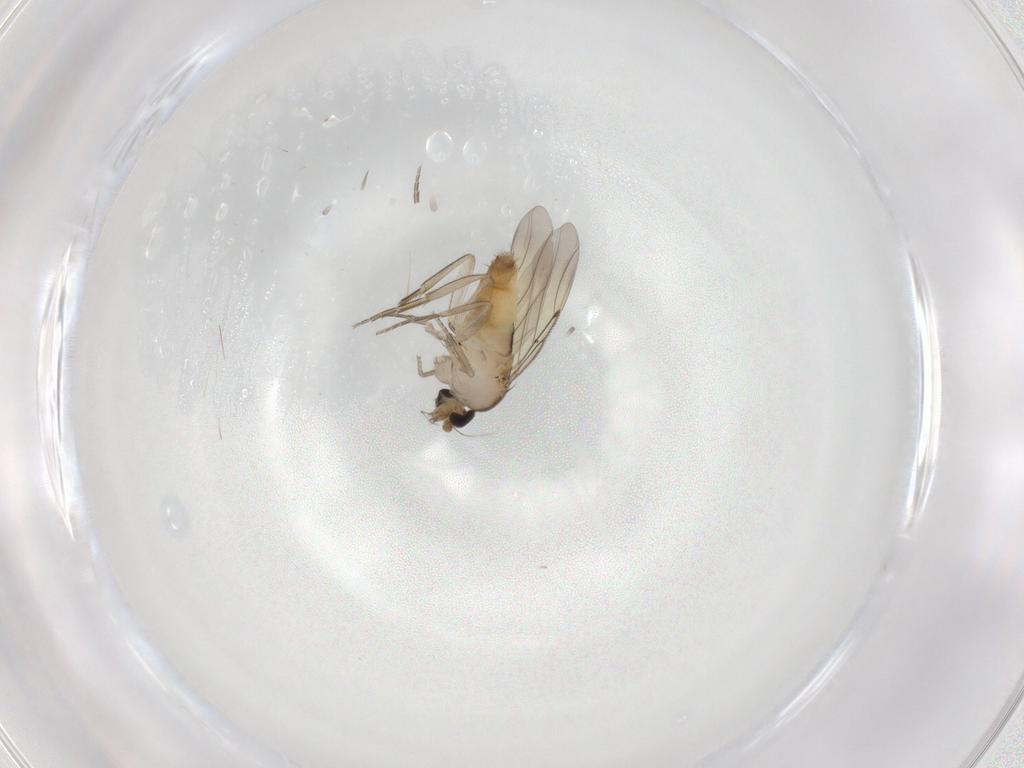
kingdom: Animalia
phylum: Arthropoda
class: Insecta
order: Diptera
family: Phoridae
